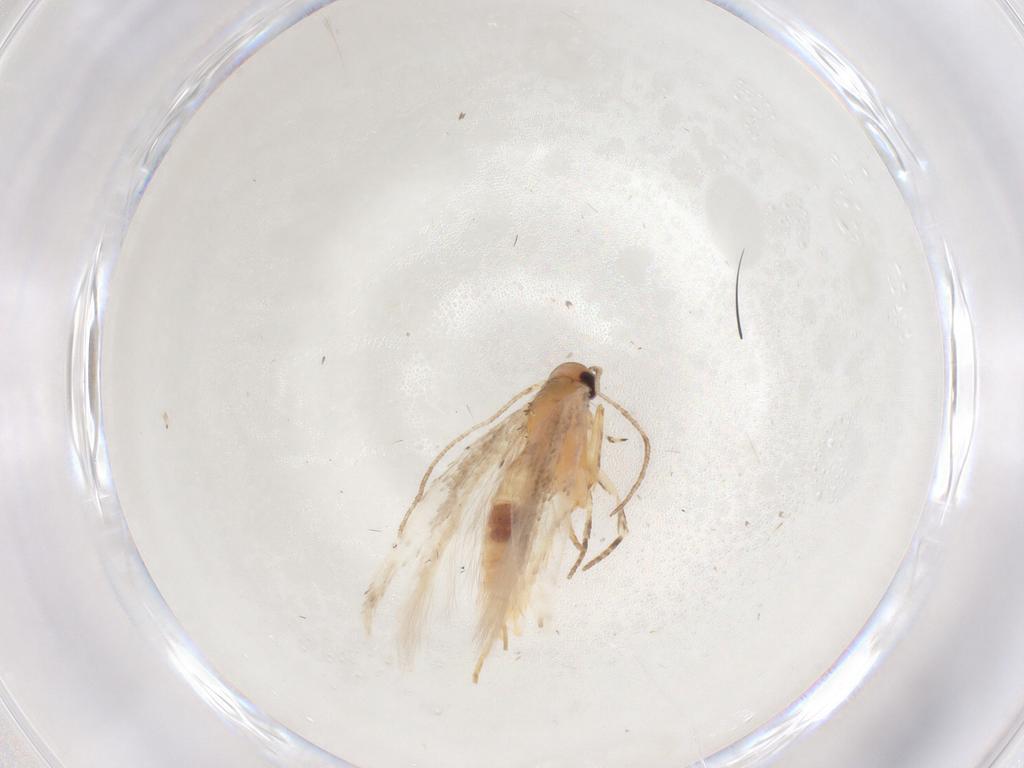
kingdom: Animalia
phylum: Arthropoda
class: Insecta
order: Lepidoptera
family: Gelechiidae
